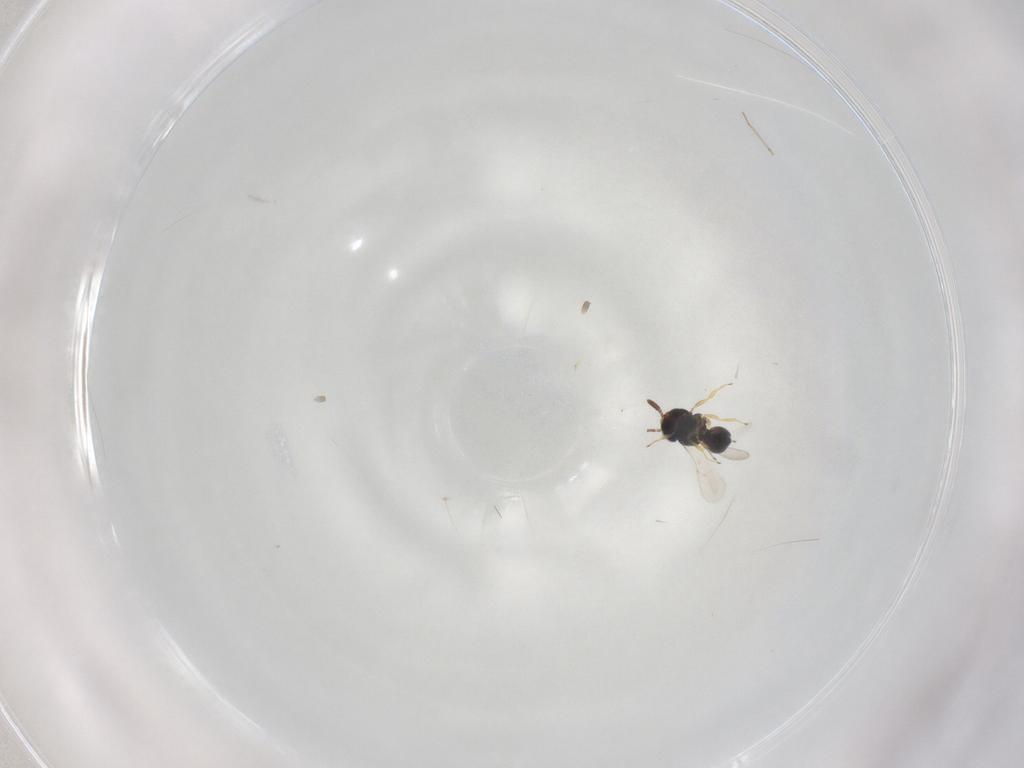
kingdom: Animalia
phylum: Arthropoda
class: Insecta
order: Hymenoptera
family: Scelionidae
